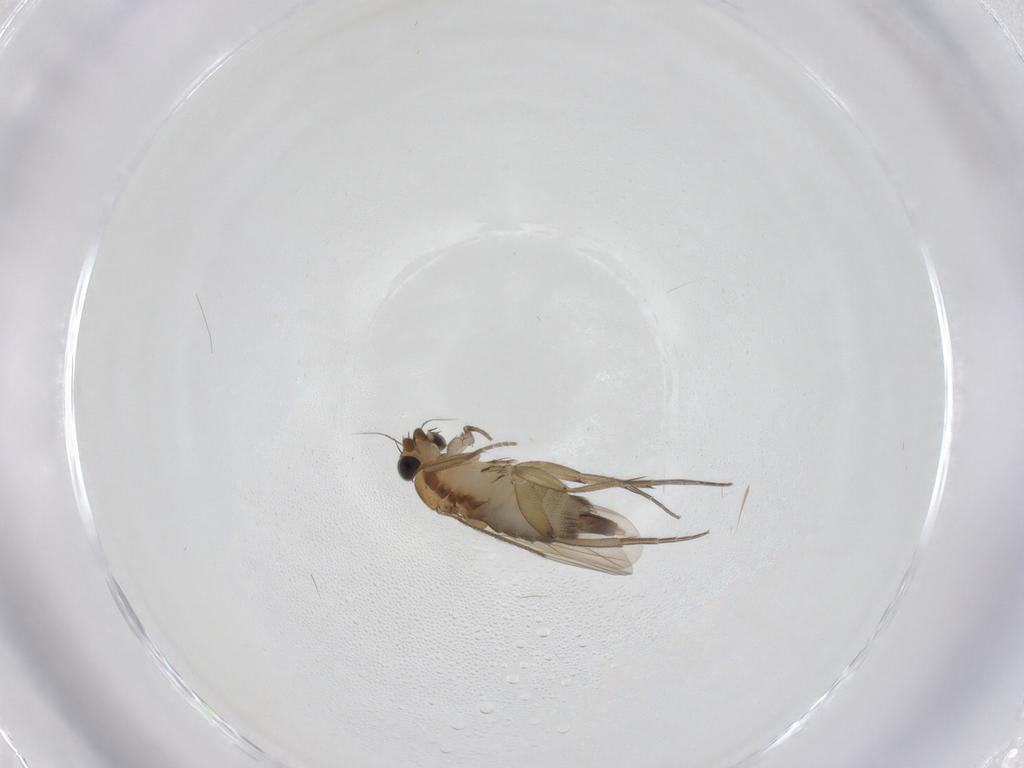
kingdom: Animalia
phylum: Arthropoda
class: Insecta
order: Diptera
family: Phoridae
